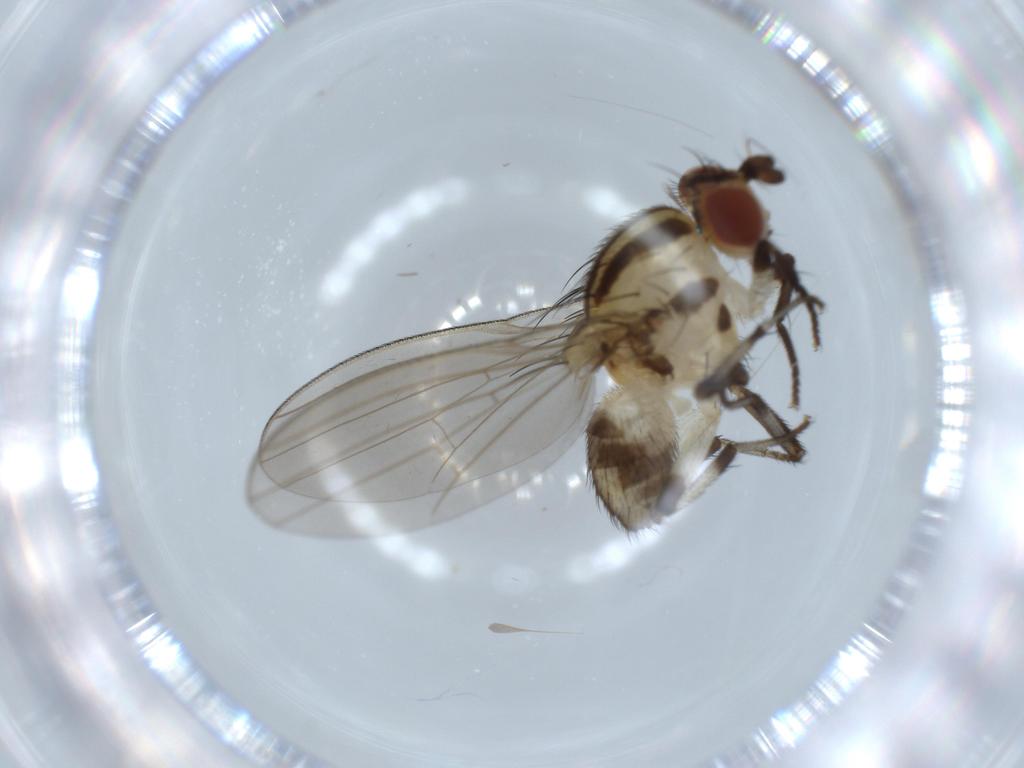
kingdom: Animalia
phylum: Arthropoda
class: Insecta
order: Diptera
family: Lauxaniidae
